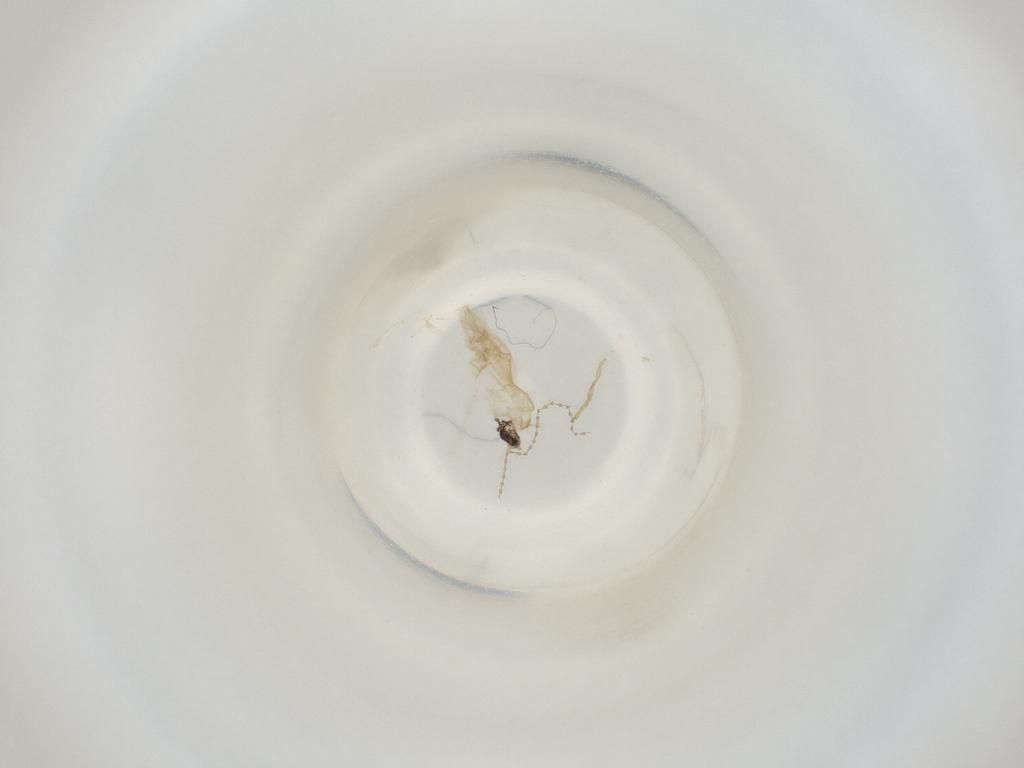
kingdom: Animalia
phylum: Arthropoda
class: Insecta
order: Diptera
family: Cecidomyiidae
